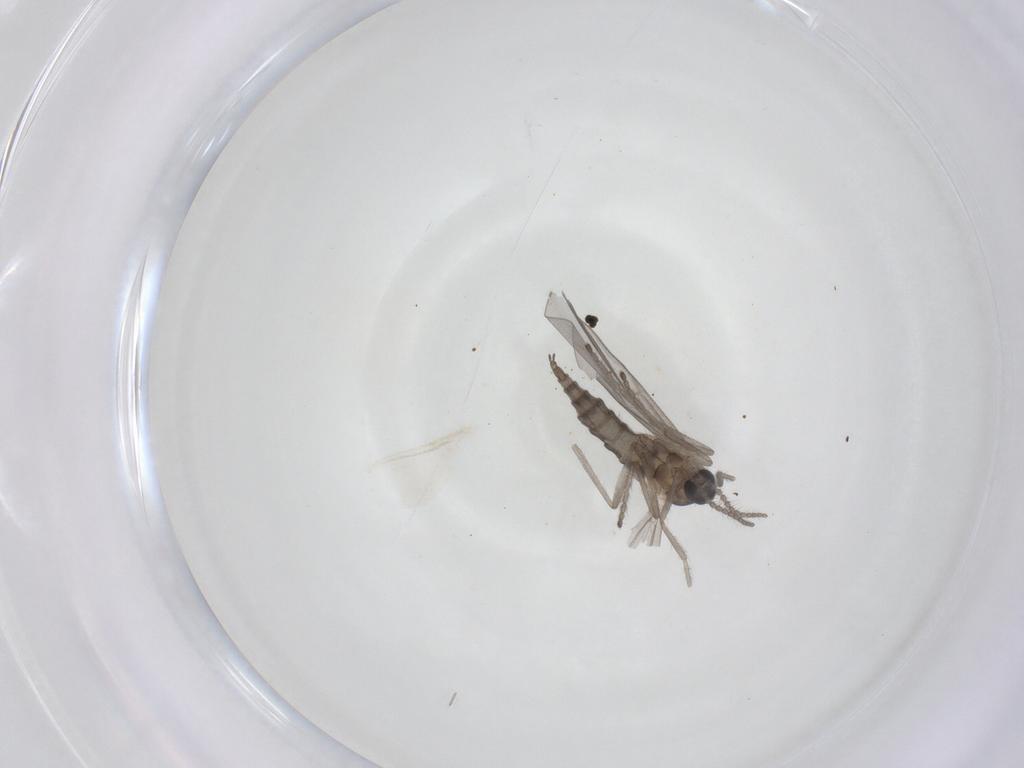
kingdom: Animalia
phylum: Arthropoda
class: Insecta
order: Diptera
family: Cecidomyiidae
